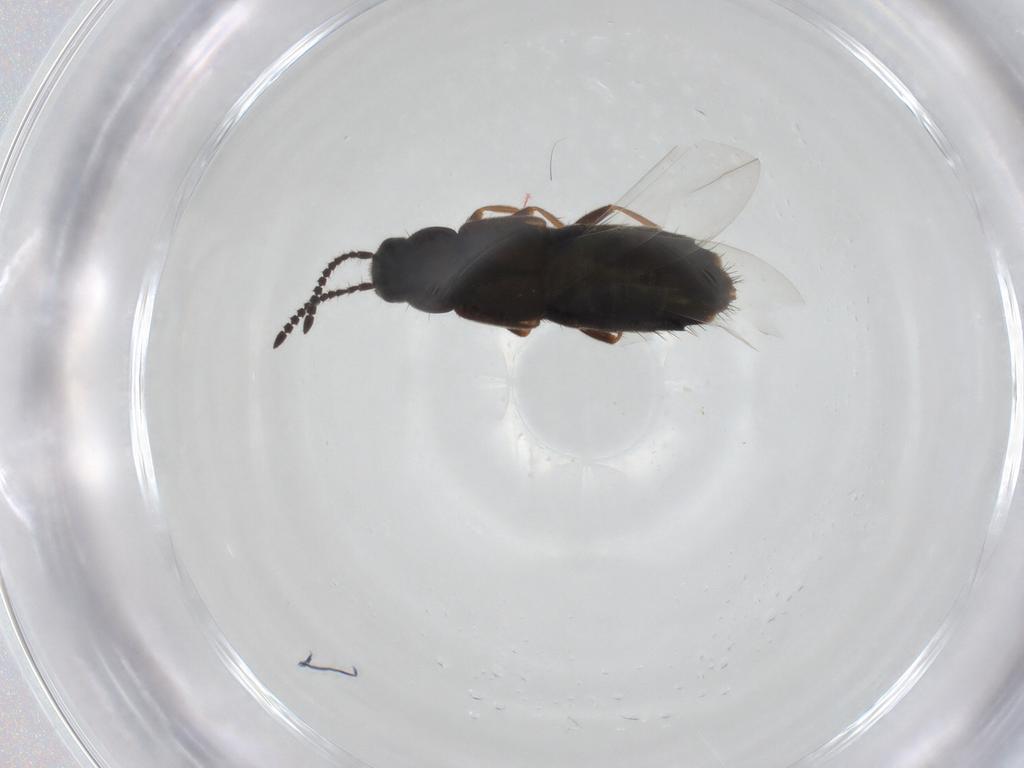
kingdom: Animalia
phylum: Arthropoda
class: Insecta
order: Coleoptera
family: Staphylinidae
